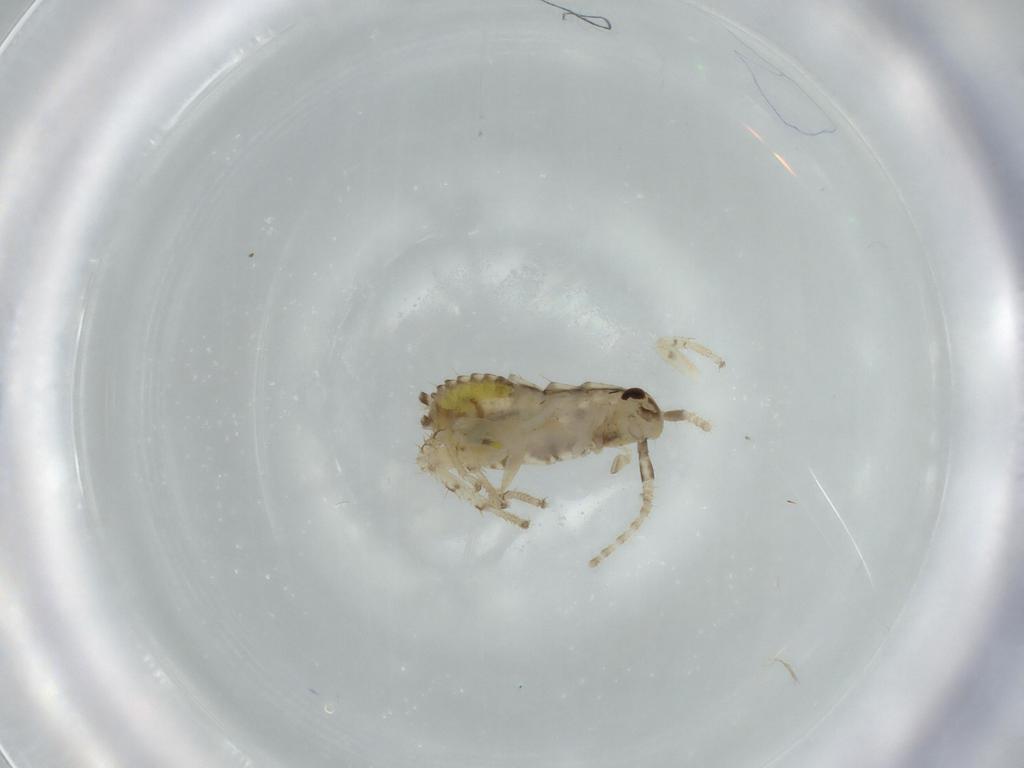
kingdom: Animalia
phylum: Arthropoda
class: Insecta
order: Blattodea
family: Ectobiidae
